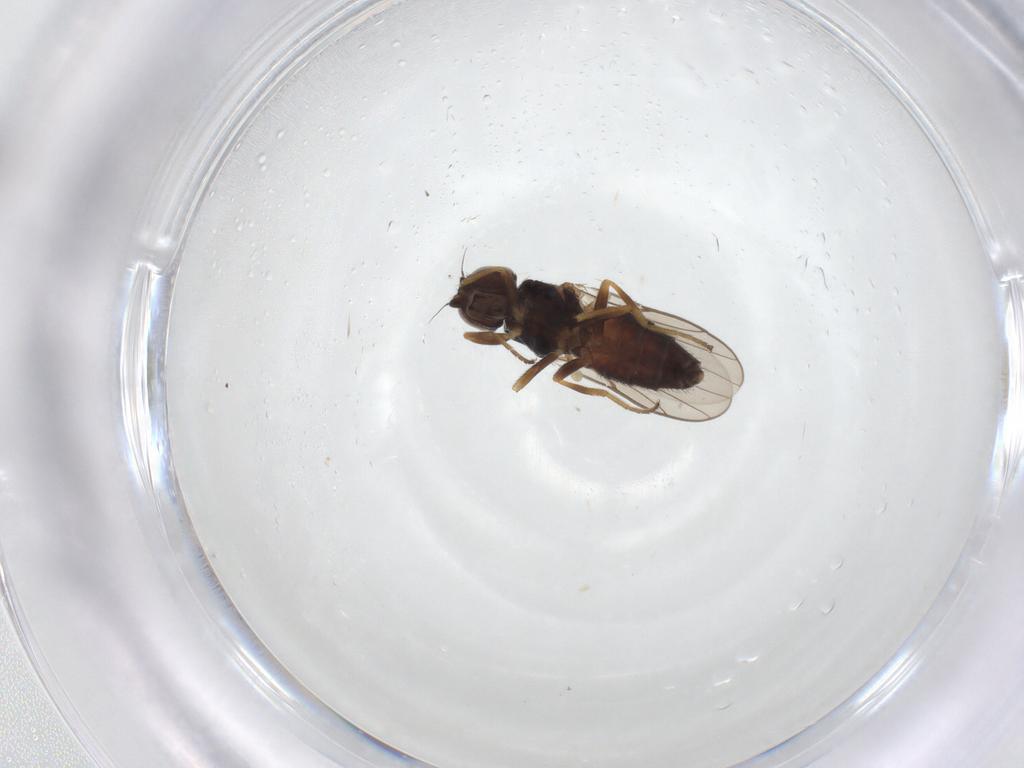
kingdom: Animalia
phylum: Arthropoda
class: Insecta
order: Diptera
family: Chloropidae
